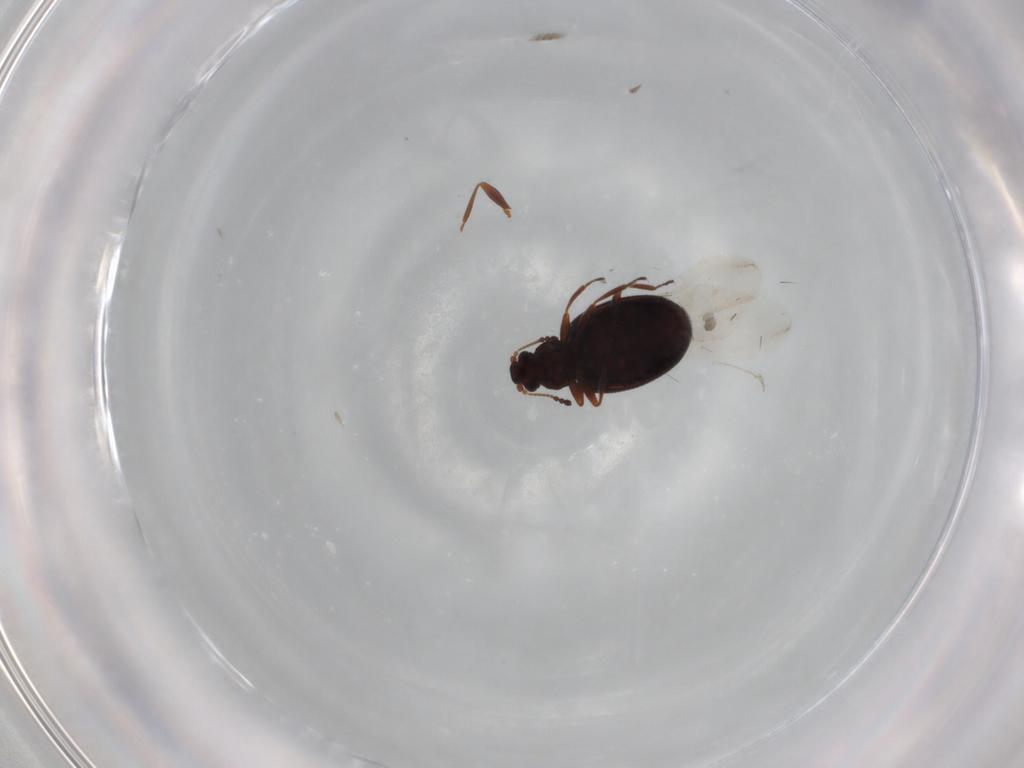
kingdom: Animalia
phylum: Arthropoda
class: Insecta
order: Coleoptera
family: Latridiidae
